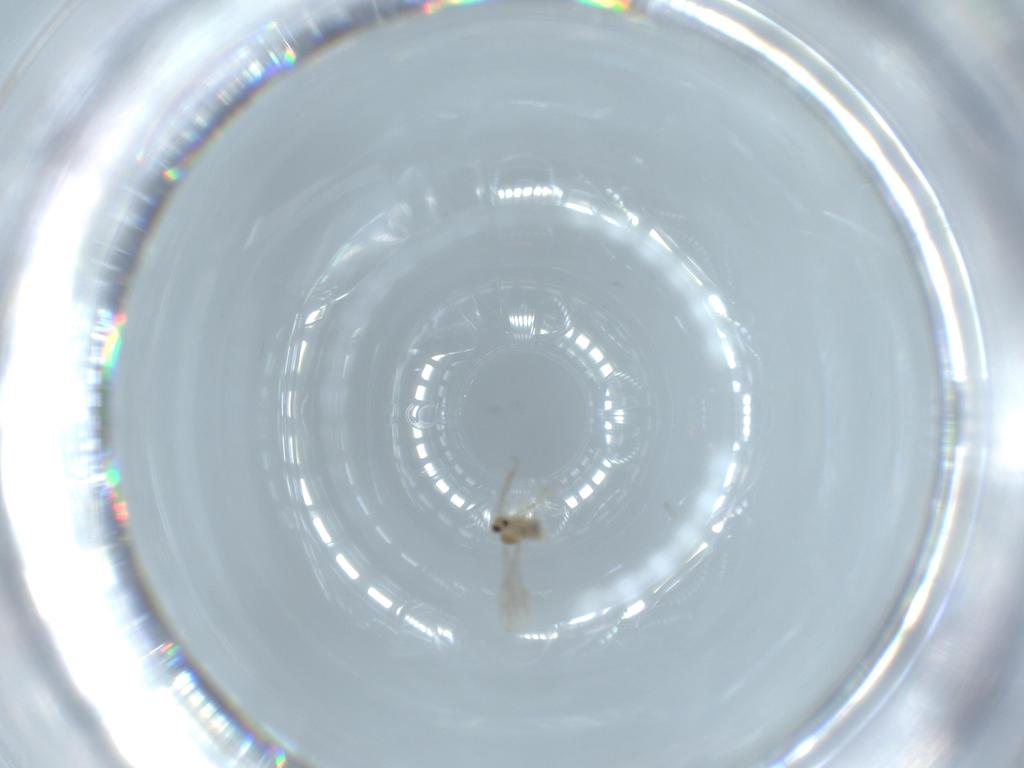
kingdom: Animalia
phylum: Arthropoda
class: Insecta
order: Diptera
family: Cecidomyiidae
